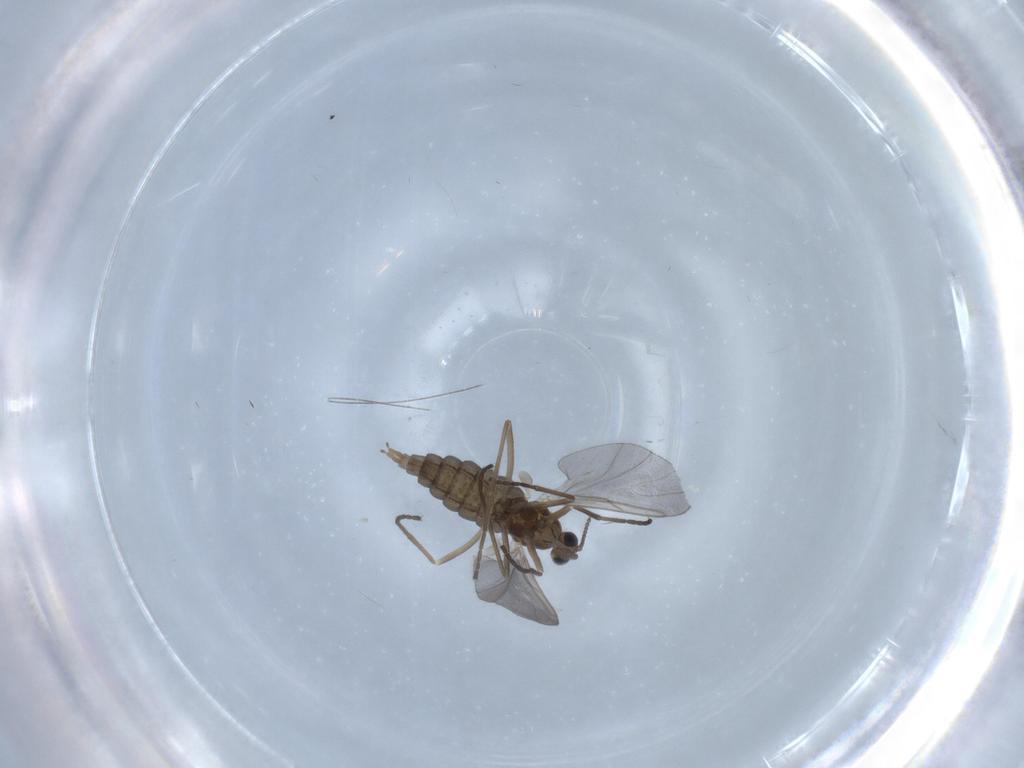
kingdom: Animalia
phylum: Arthropoda
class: Insecta
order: Diptera
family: Cecidomyiidae
